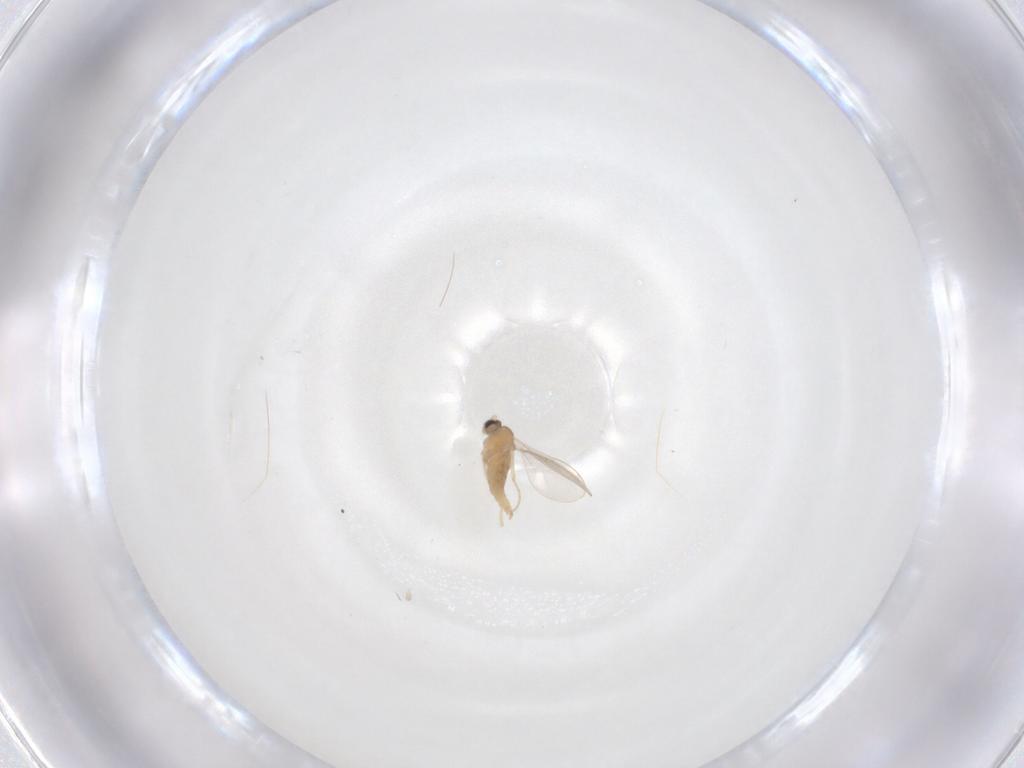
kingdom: Animalia
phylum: Arthropoda
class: Insecta
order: Diptera
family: Cecidomyiidae
